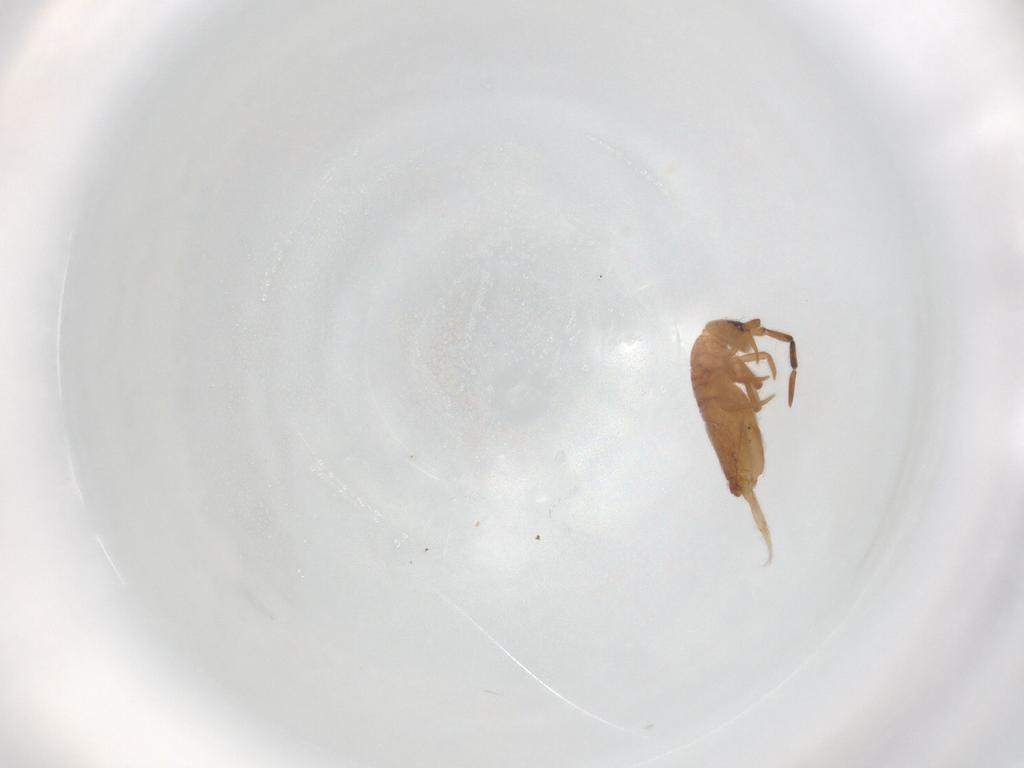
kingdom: Animalia
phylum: Arthropoda
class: Collembola
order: Entomobryomorpha
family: Entomobryidae
